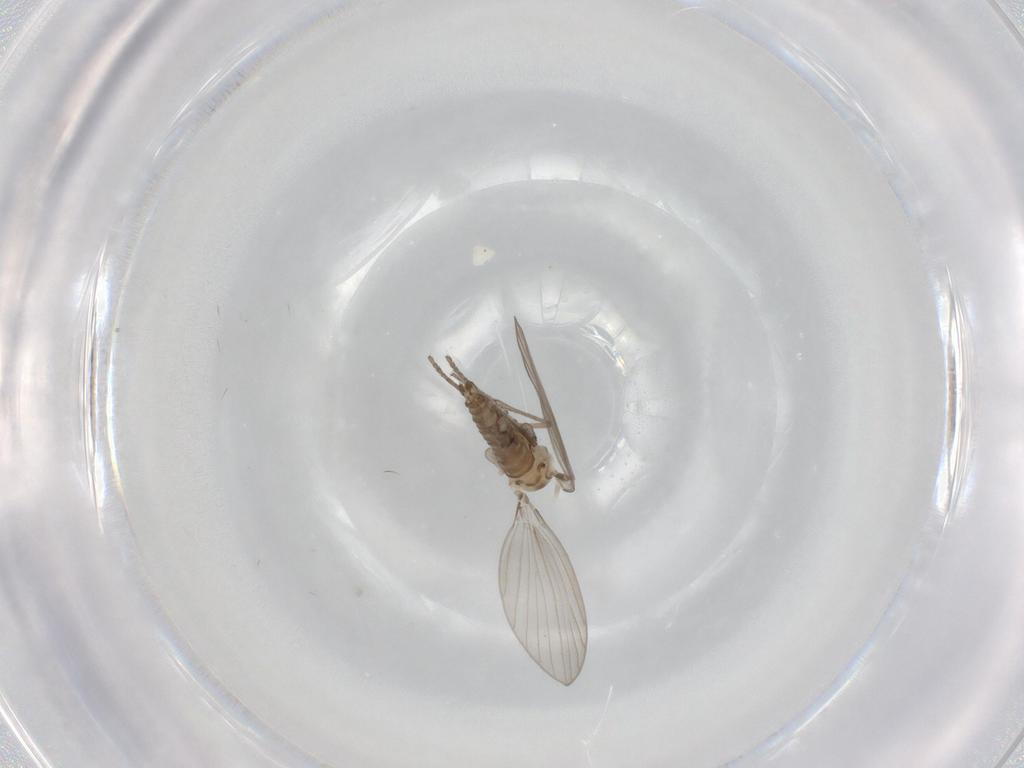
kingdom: Animalia
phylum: Arthropoda
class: Insecta
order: Diptera
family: Psychodidae
